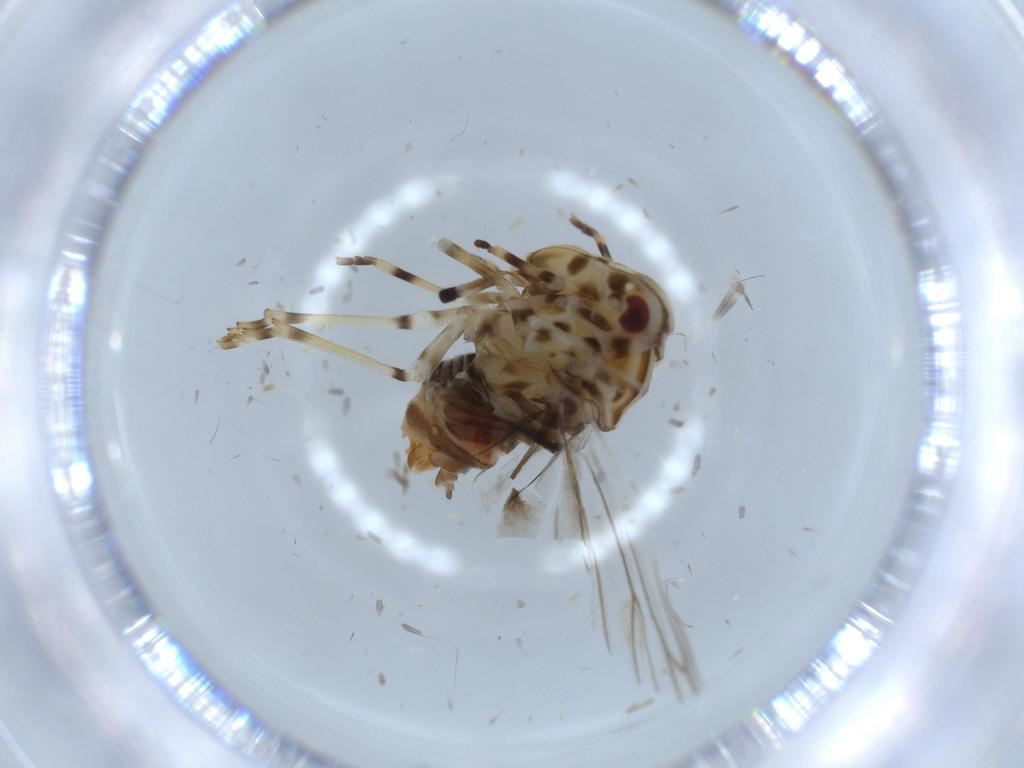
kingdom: Animalia
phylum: Arthropoda
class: Insecta
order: Hemiptera
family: Derbidae
